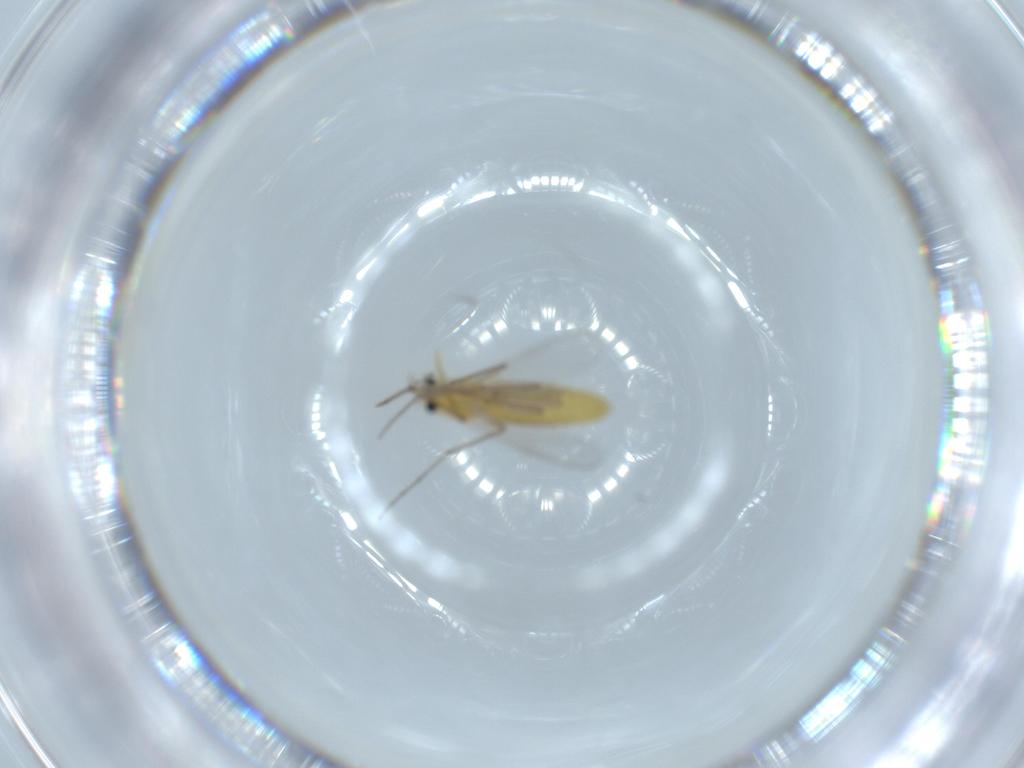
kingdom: Animalia
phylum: Arthropoda
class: Insecta
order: Diptera
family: Chironomidae
